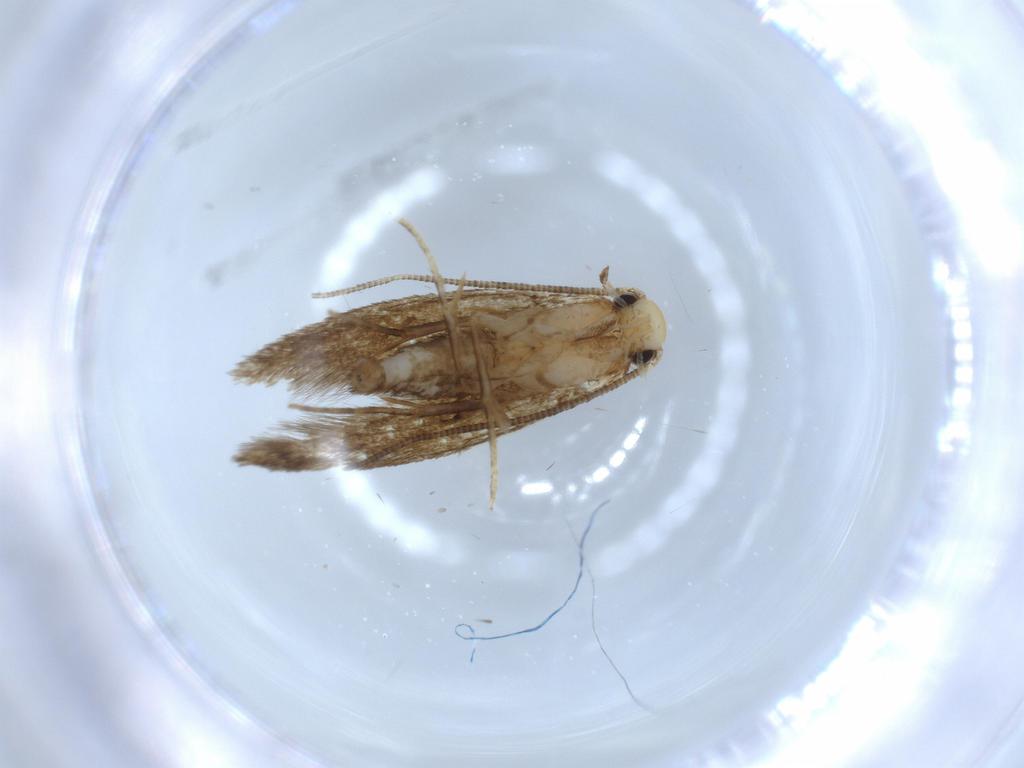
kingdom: Animalia
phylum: Arthropoda
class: Insecta
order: Lepidoptera
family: Tineidae
